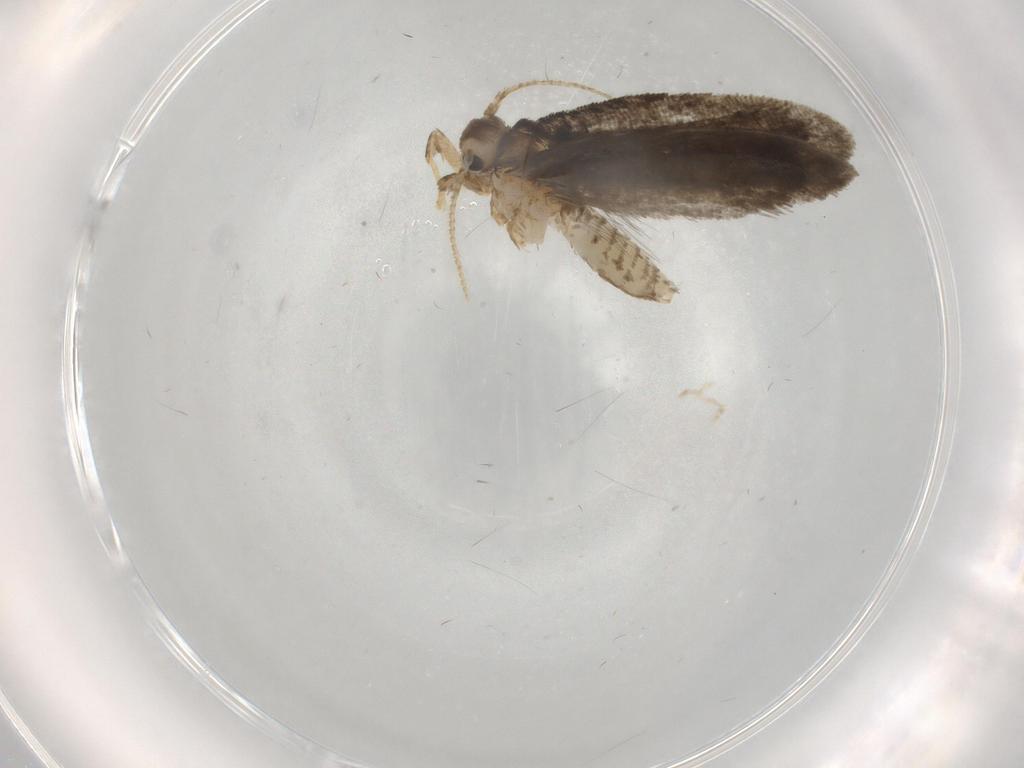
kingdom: Animalia
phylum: Arthropoda
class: Insecta
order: Lepidoptera
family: Psychidae
